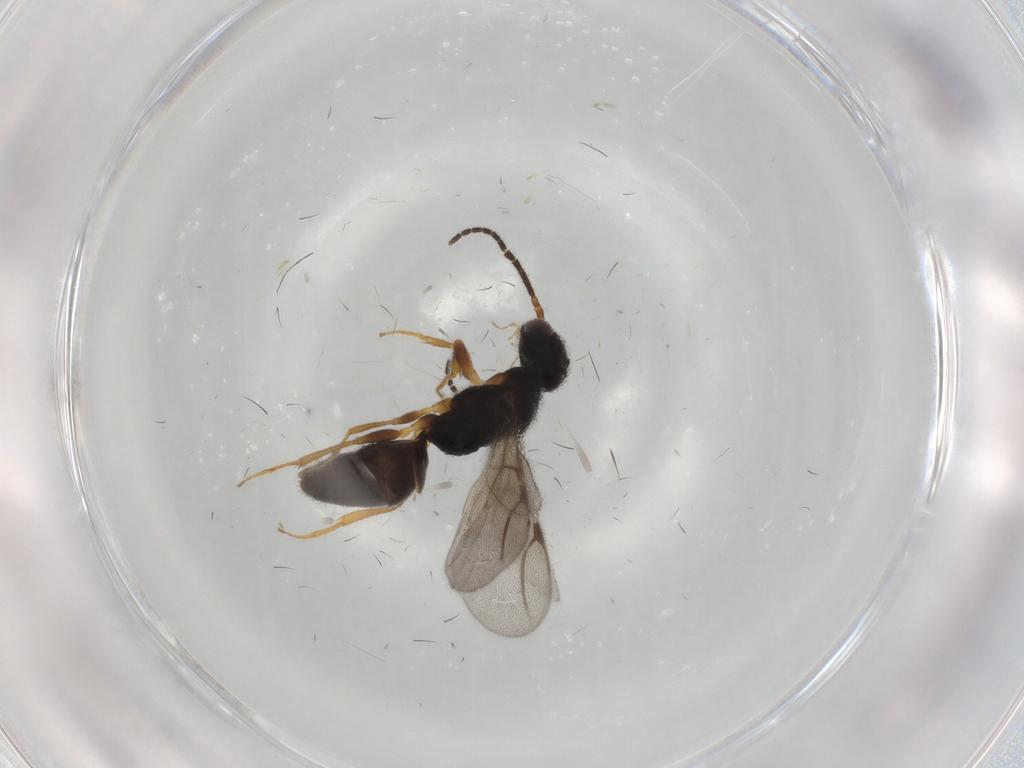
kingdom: Animalia
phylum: Arthropoda
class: Insecta
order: Hymenoptera
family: Bethylidae
